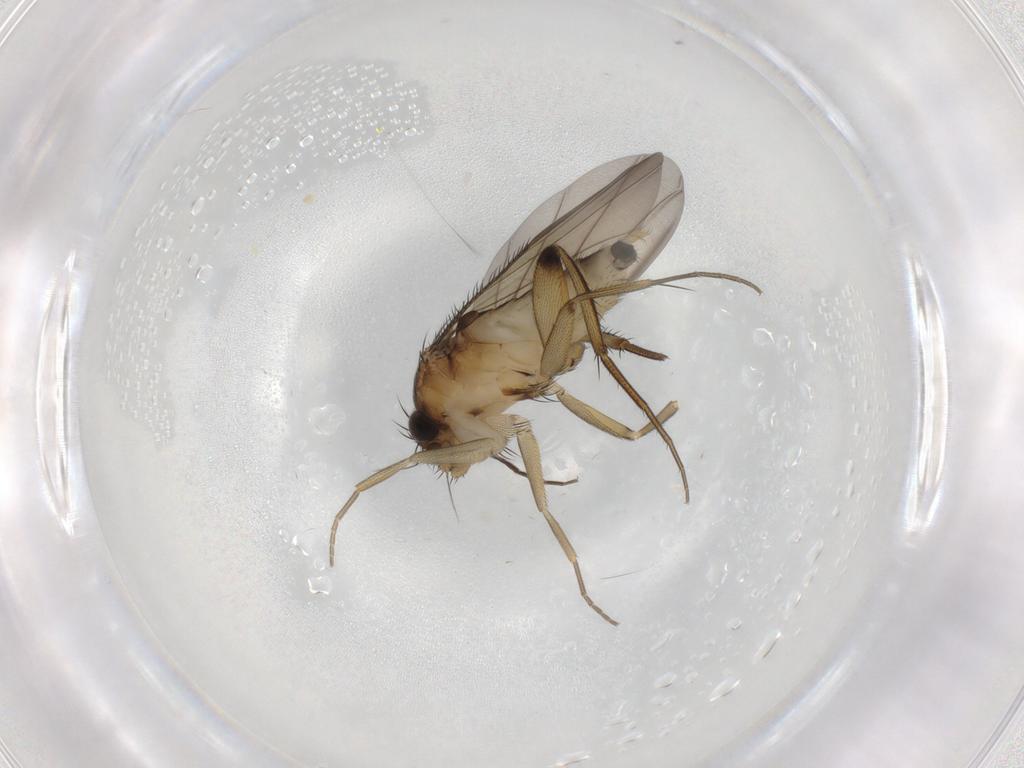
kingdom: Animalia
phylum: Arthropoda
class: Insecta
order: Diptera
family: Phoridae
